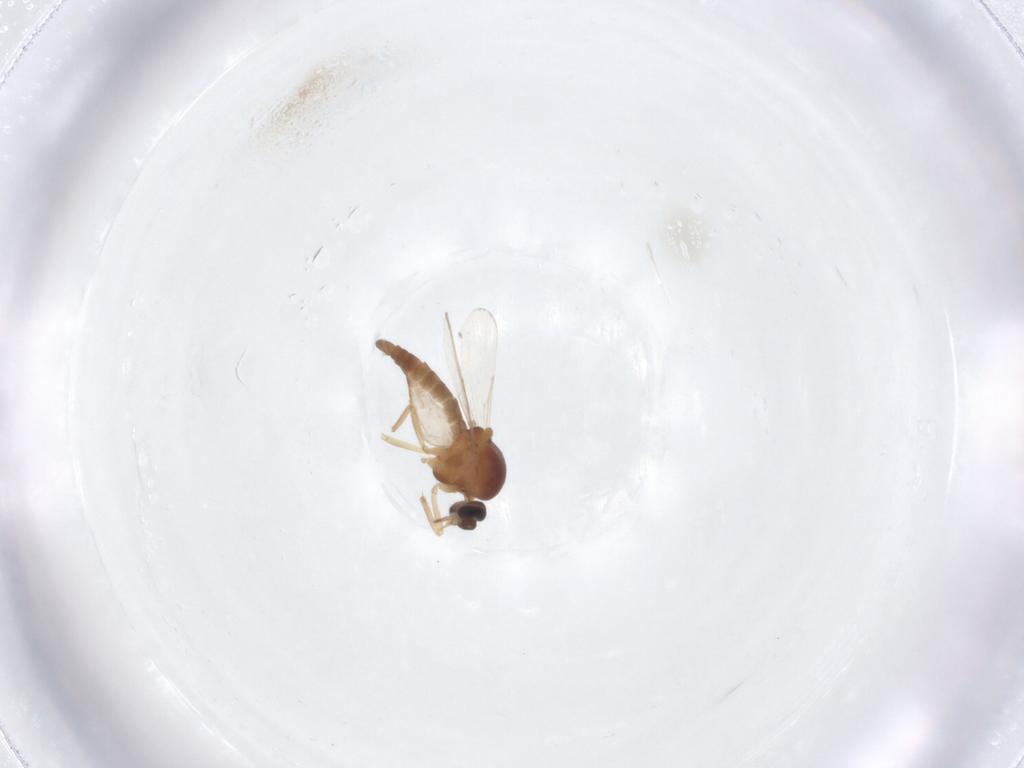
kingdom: Animalia
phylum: Arthropoda
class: Insecta
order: Diptera
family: Ceratopogonidae
